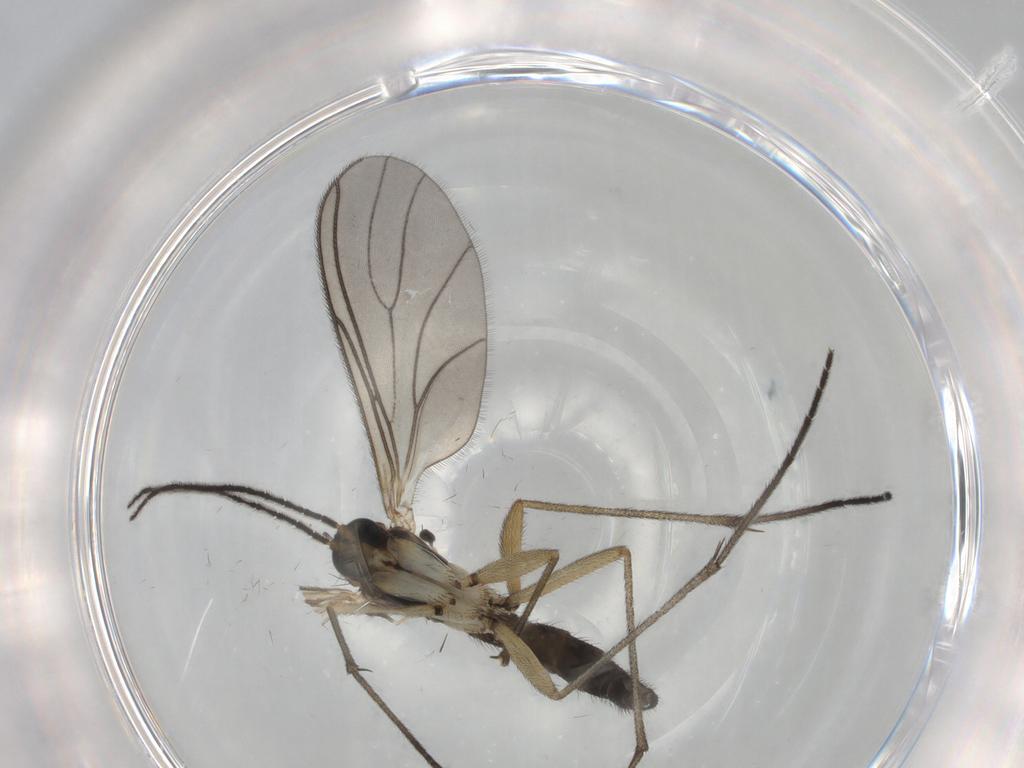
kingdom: Animalia
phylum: Arthropoda
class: Insecta
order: Diptera
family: Hybotidae
